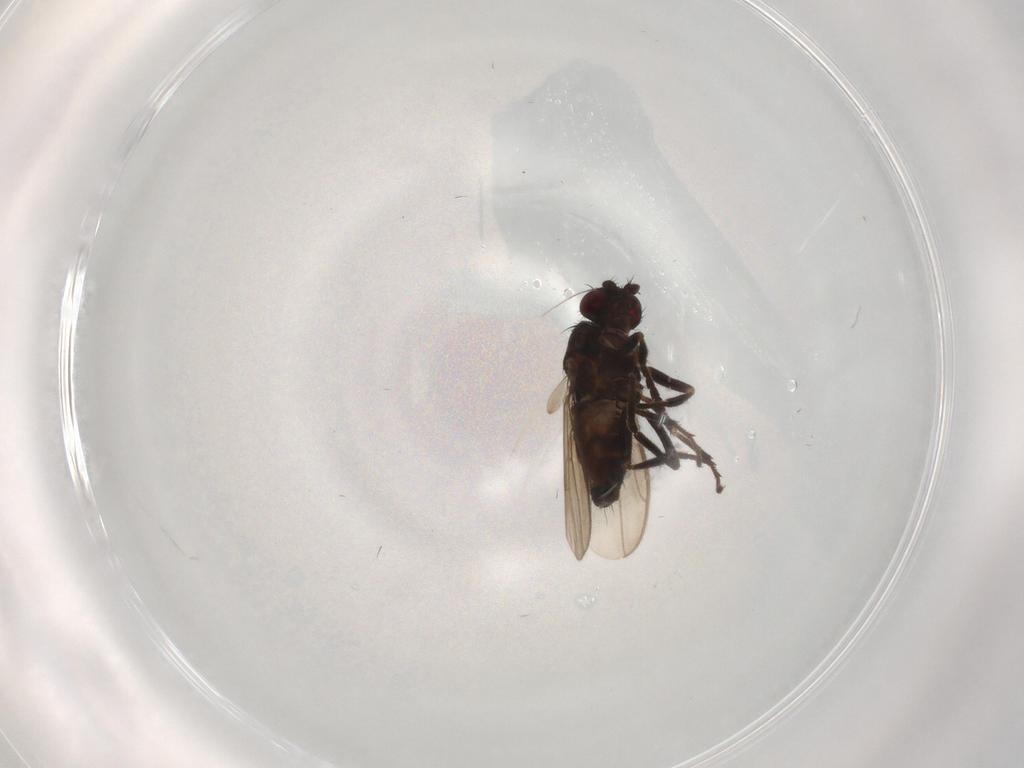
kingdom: Animalia
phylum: Arthropoda
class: Insecta
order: Diptera
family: Sphaeroceridae
